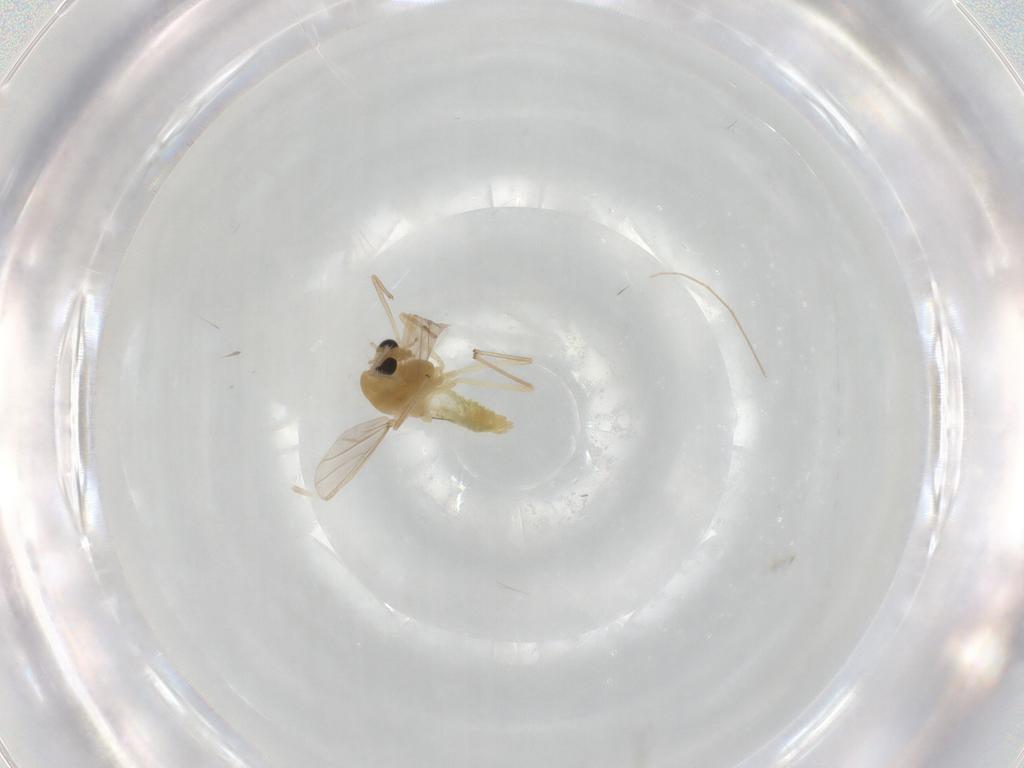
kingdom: Animalia
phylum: Arthropoda
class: Insecta
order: Diptera
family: Chironomidae
